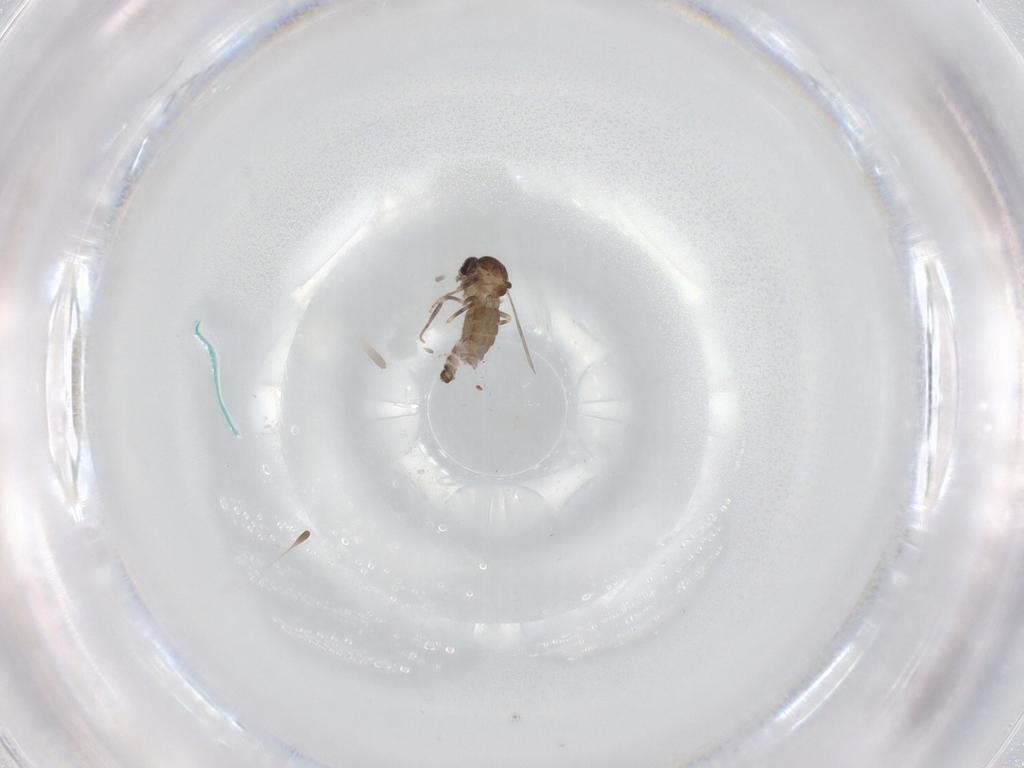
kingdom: Animalia
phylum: Arthropoda
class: Insecta
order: Diptera
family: Ceratopogonidae
